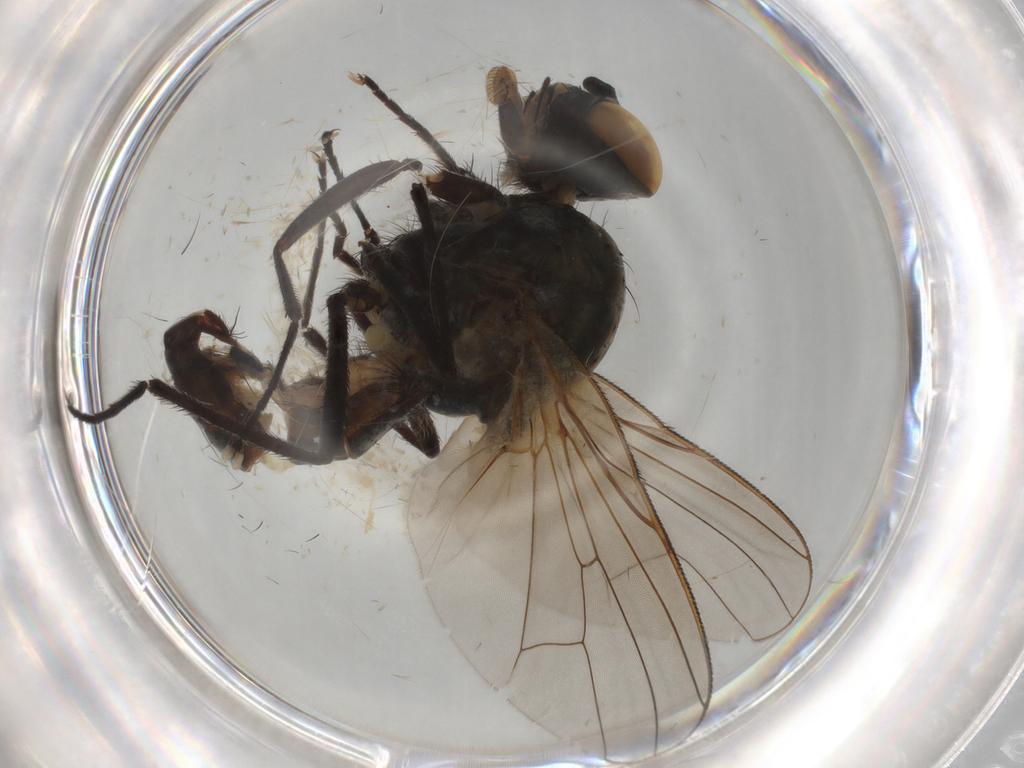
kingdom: Animalia
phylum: Arthropoda
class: Insecta
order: Diptera
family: Anthomyiidae
